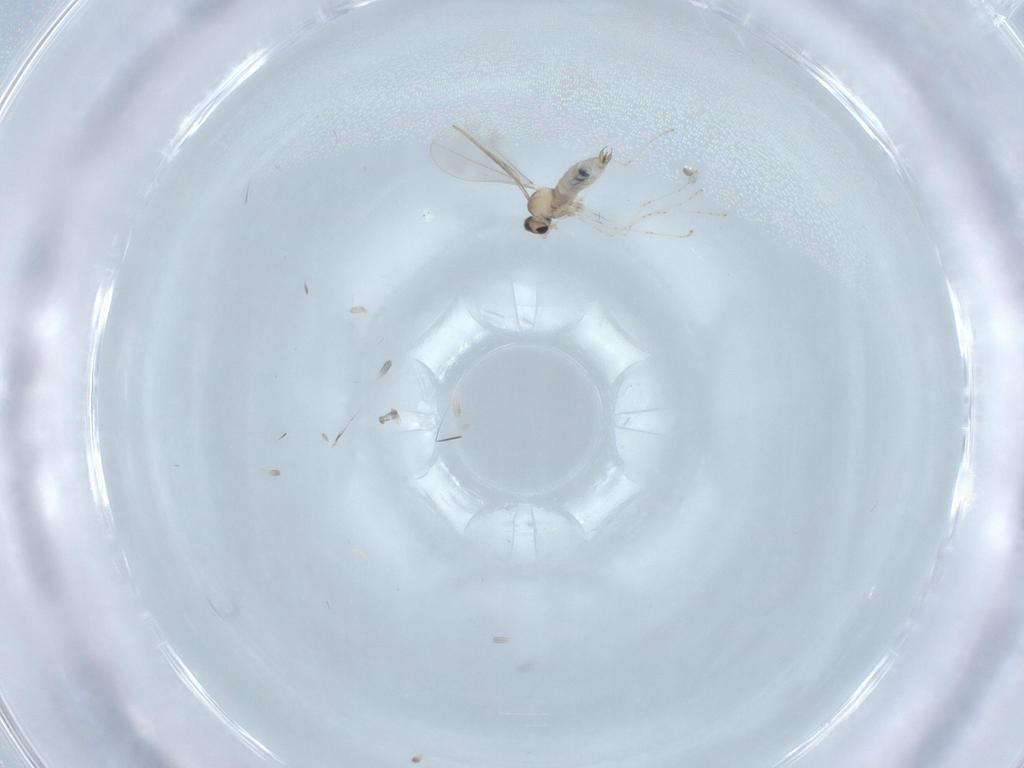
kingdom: Animalia
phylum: Arthropoda
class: Insecta
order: Diptera
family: Cecidomyiidae
